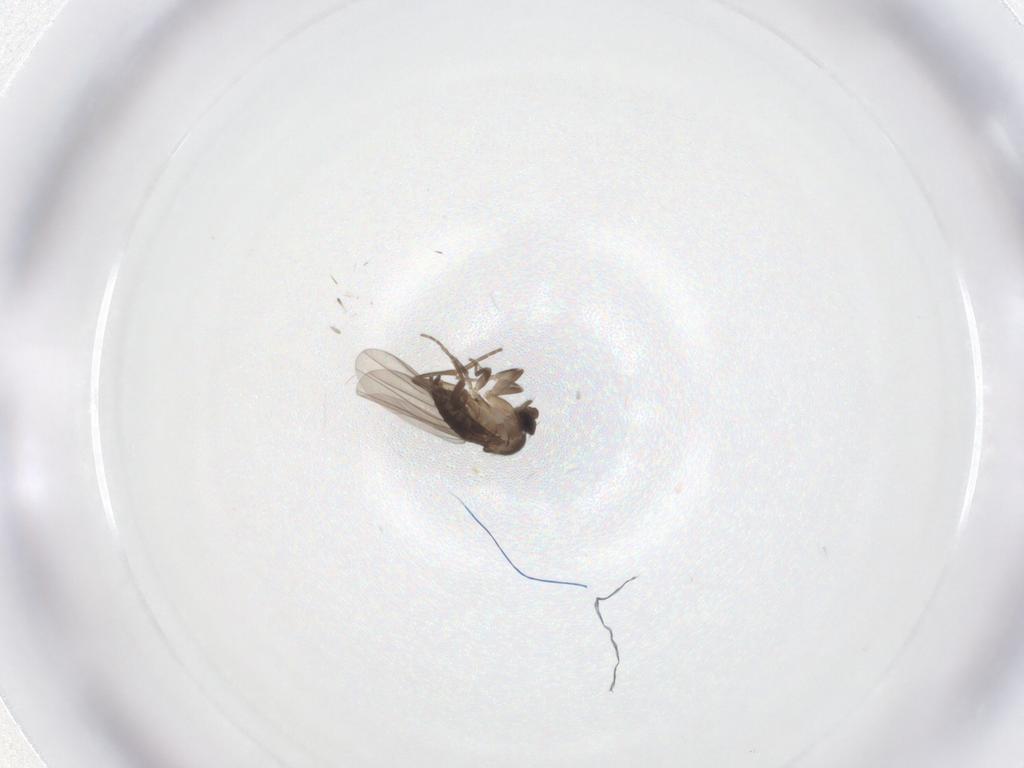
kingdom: Animalia
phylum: Arthropoda
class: Insecta
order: Diptera
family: Phoridae
